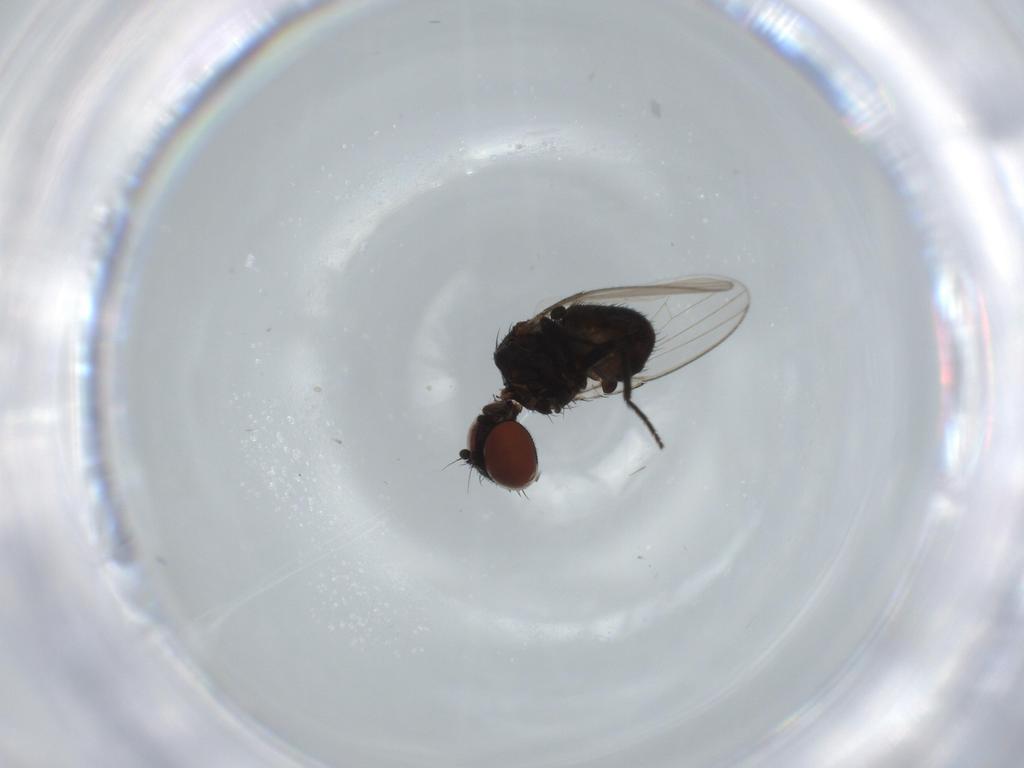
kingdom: Animalia
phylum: Arthropoda
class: Insecta
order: Diptera
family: Milichiidae
